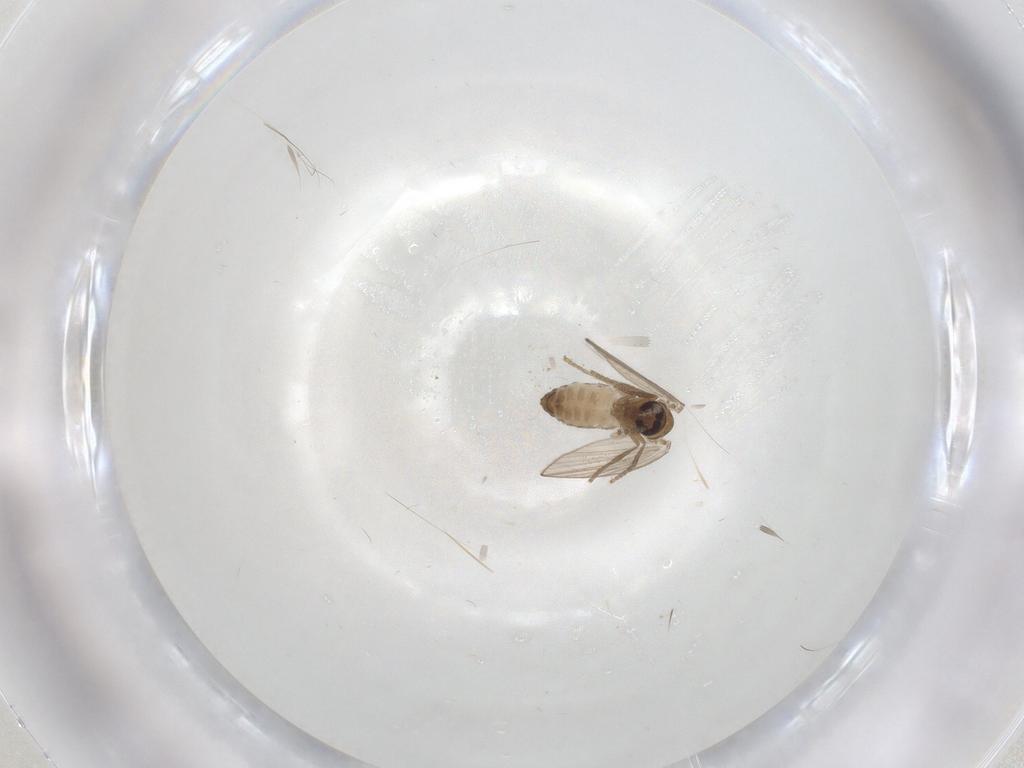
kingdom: Animalia
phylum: Arthropoda
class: Insecta
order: Diptera
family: Psychodidae
